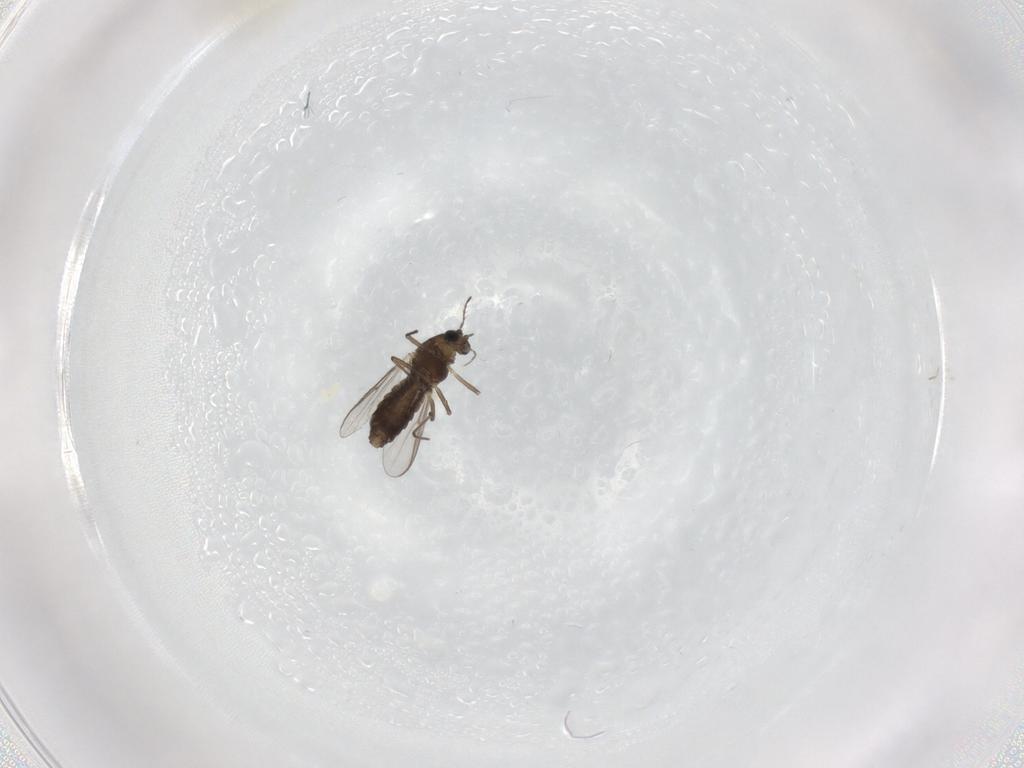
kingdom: Animalia
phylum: Arthropoda
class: Insecta
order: Diptera
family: Chironomidae
